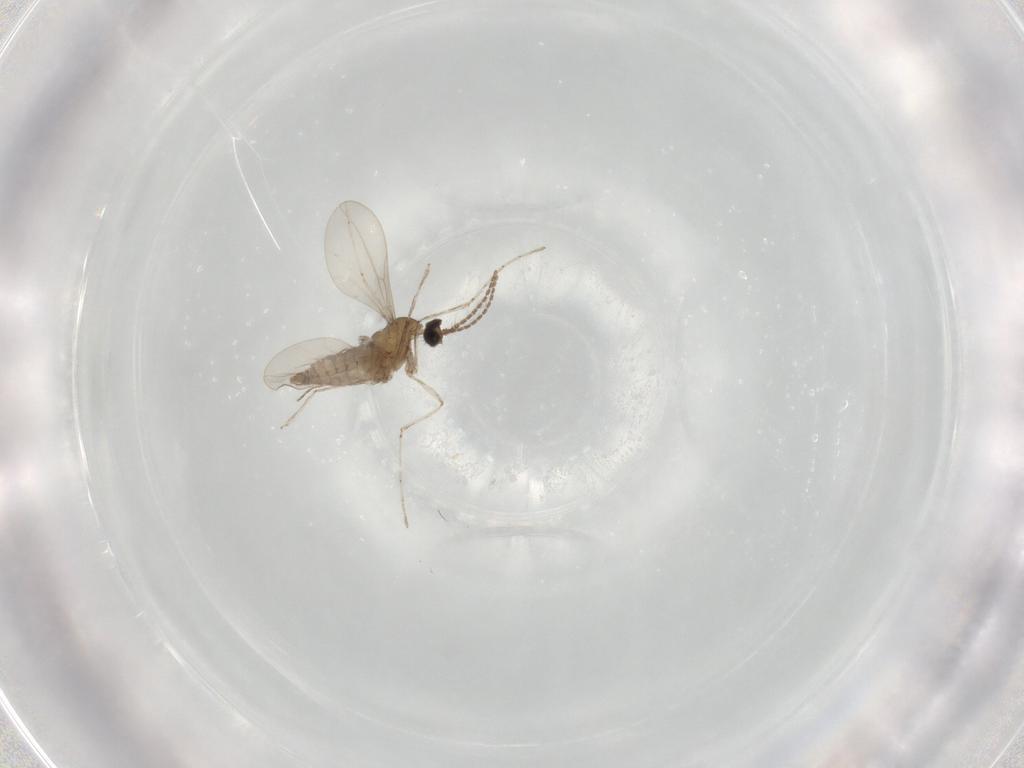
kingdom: Animalia
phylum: Arthropoda
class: Insecta
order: Diptera
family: Cecidomyiidae
